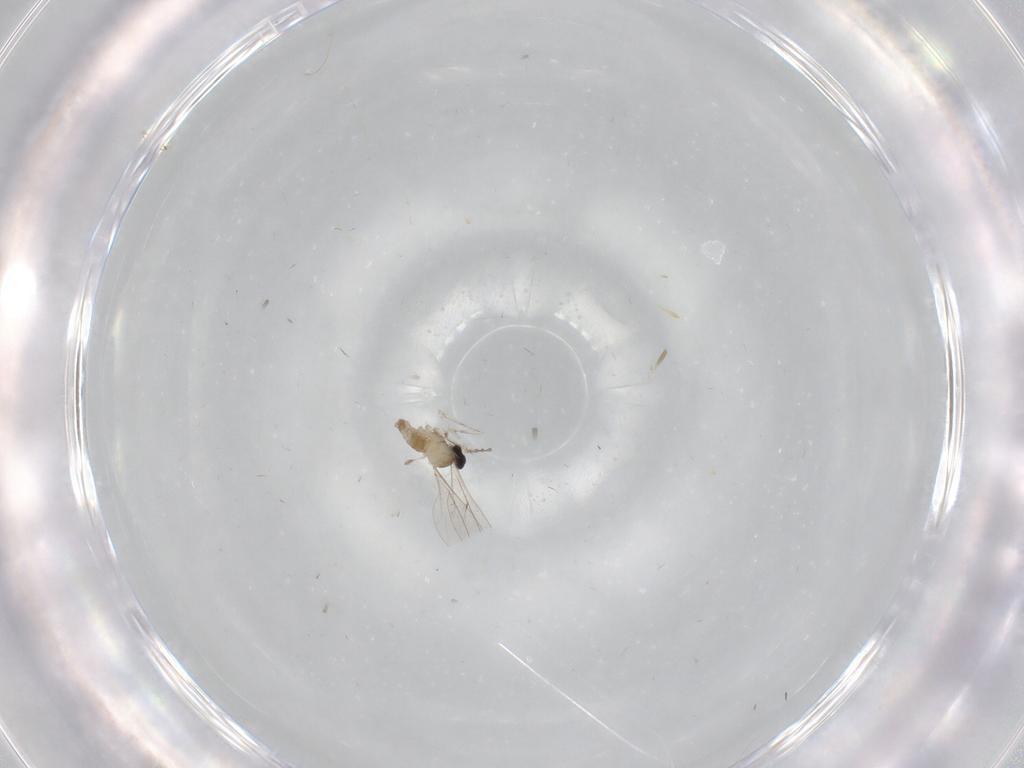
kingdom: Animalia
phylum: Arthropoda
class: Insecta
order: Diptera
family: Cecidomyiidae
